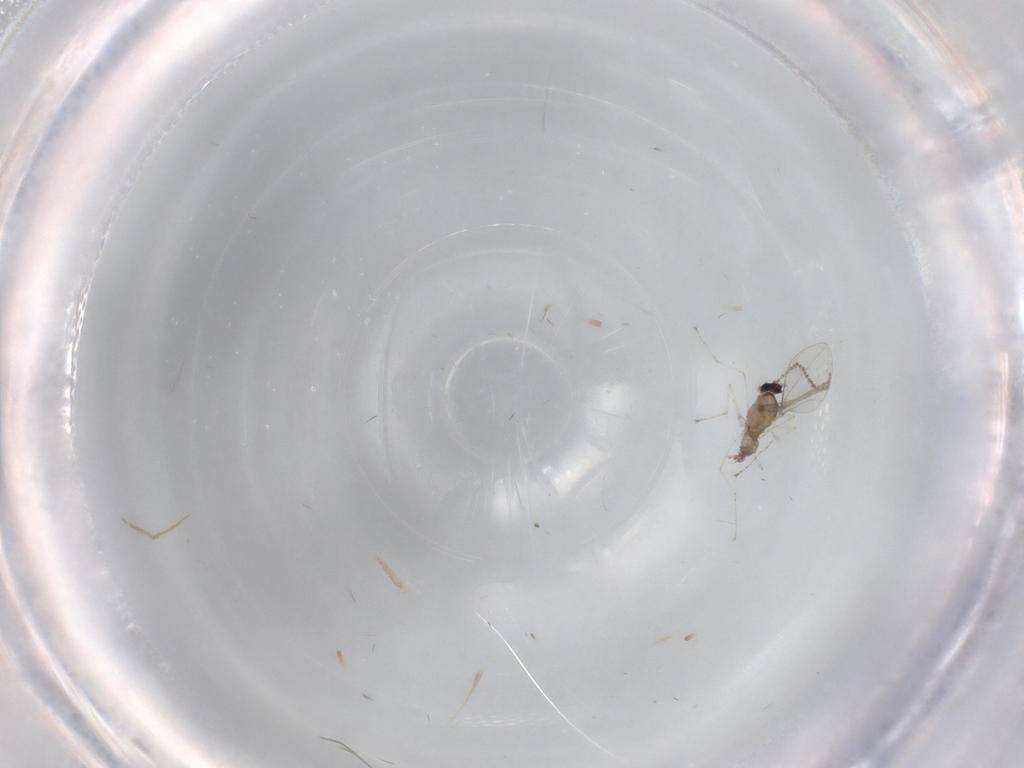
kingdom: Animalia
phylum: Arthropoda
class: Insecta
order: Diptera
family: Cecidomyiidae
